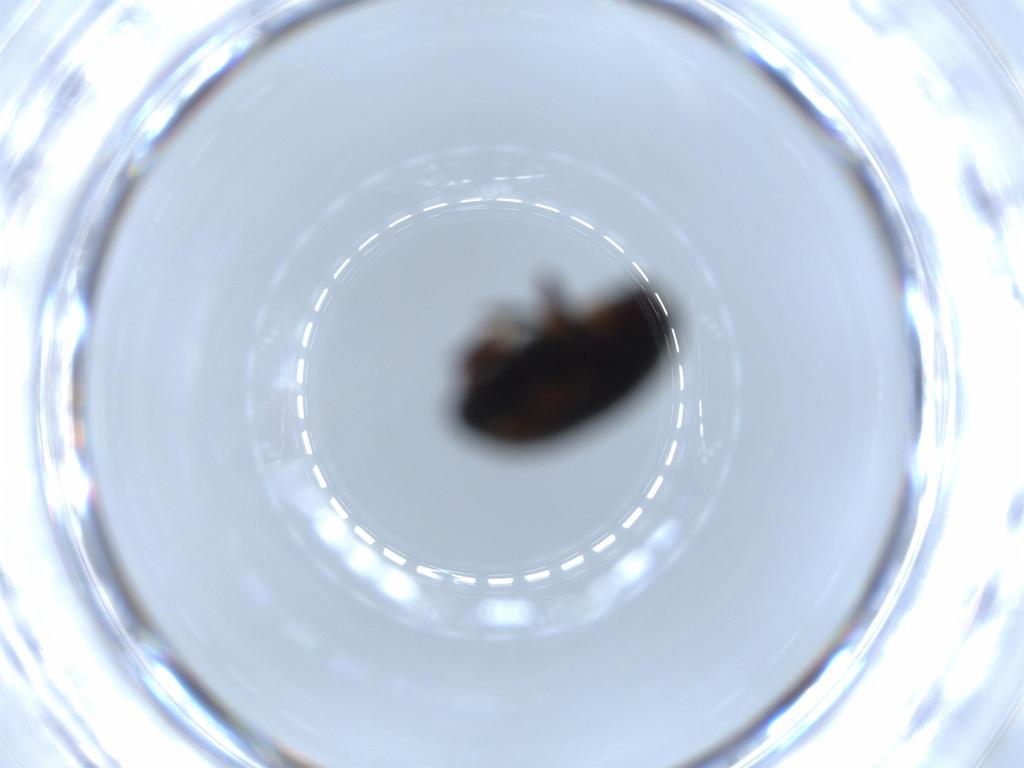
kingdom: Animalia
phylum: Arthropoda
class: Insecta
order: Coleoptera
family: Curculionidae
